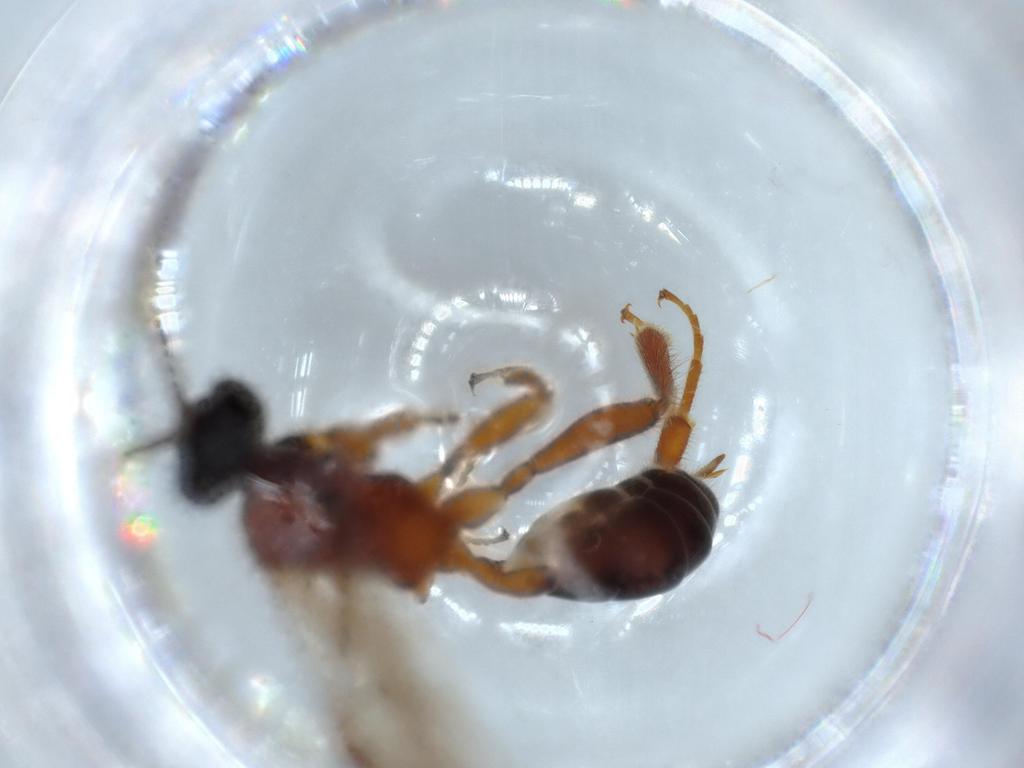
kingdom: Animalia
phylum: Arthropoda
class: Insecta
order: Hymenoptera
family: Ichneumonidae
